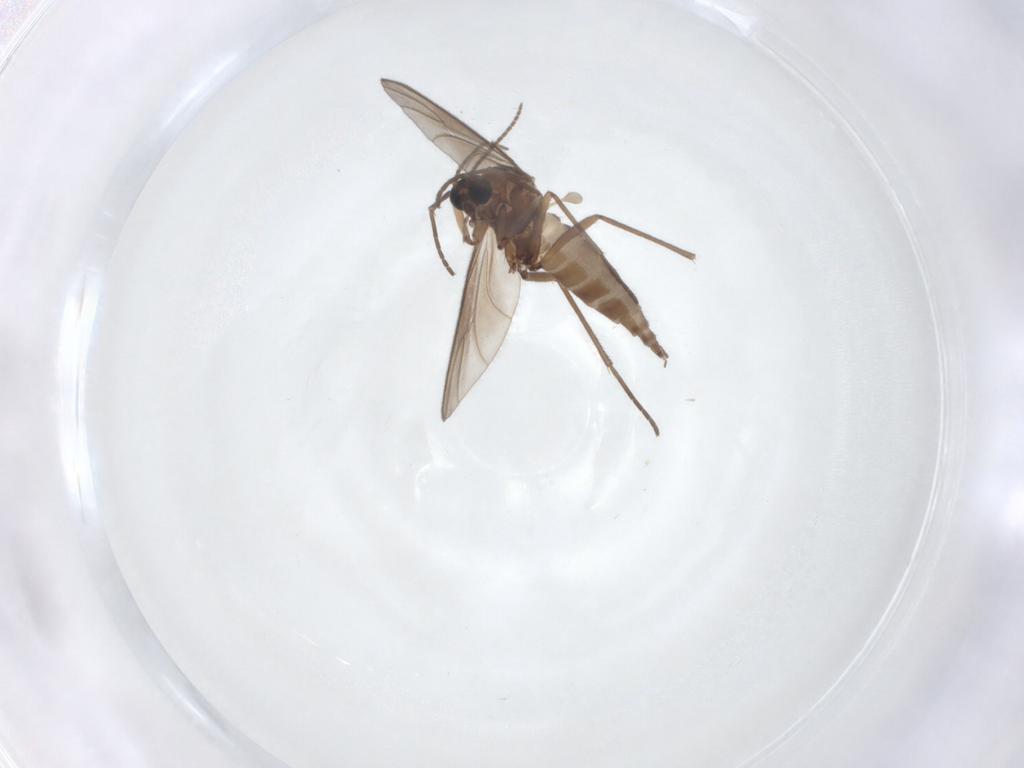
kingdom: Animalia
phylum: Arthropoda
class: Insecta
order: Diptera
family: Sciaridae
